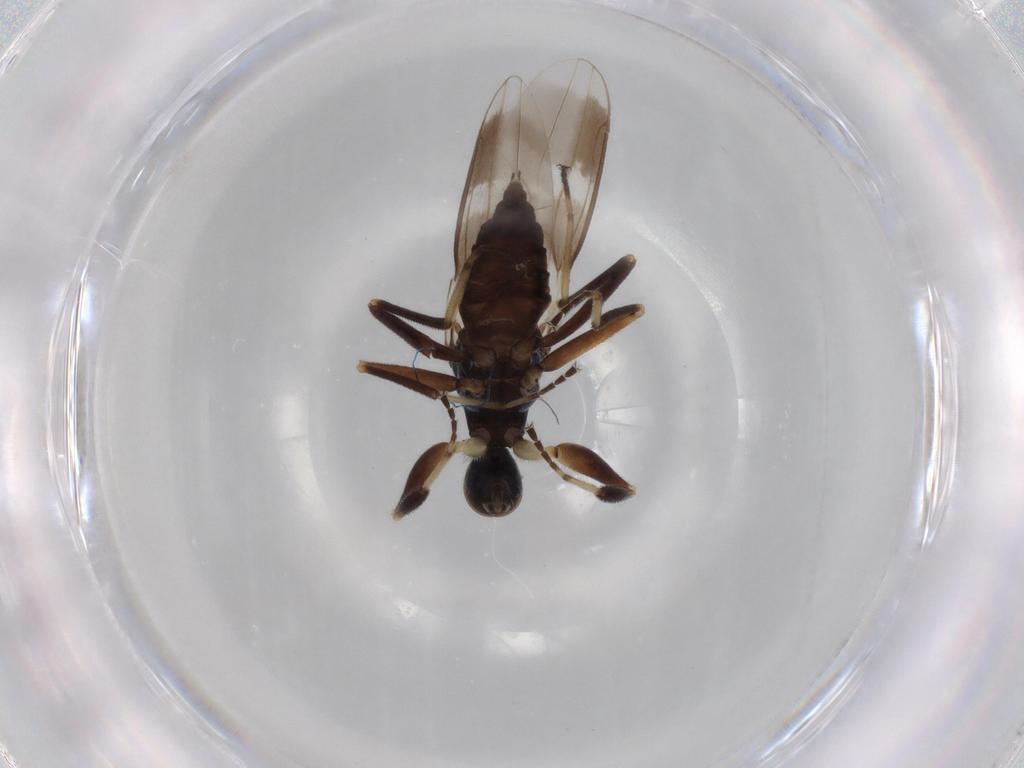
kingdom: Animalia
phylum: Arthropoda
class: Insecta
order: Diptera
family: Hybotidae
